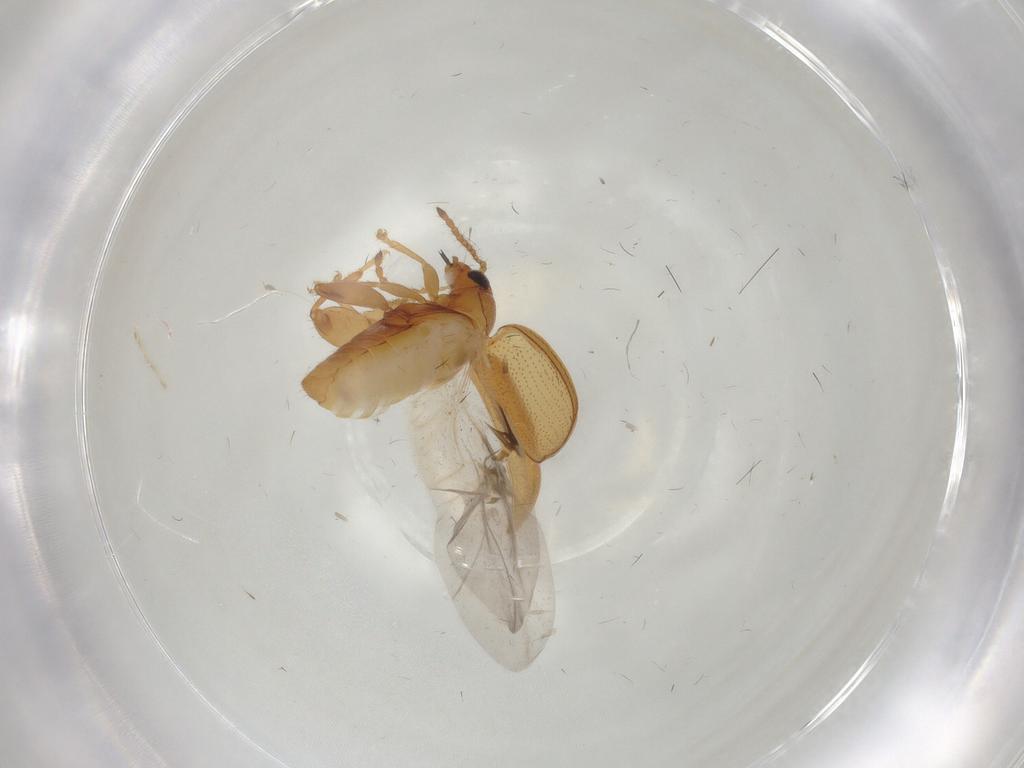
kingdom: Animalia
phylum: Arthropoda
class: Insecta
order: Coleoptera
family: Chrysomelidae
